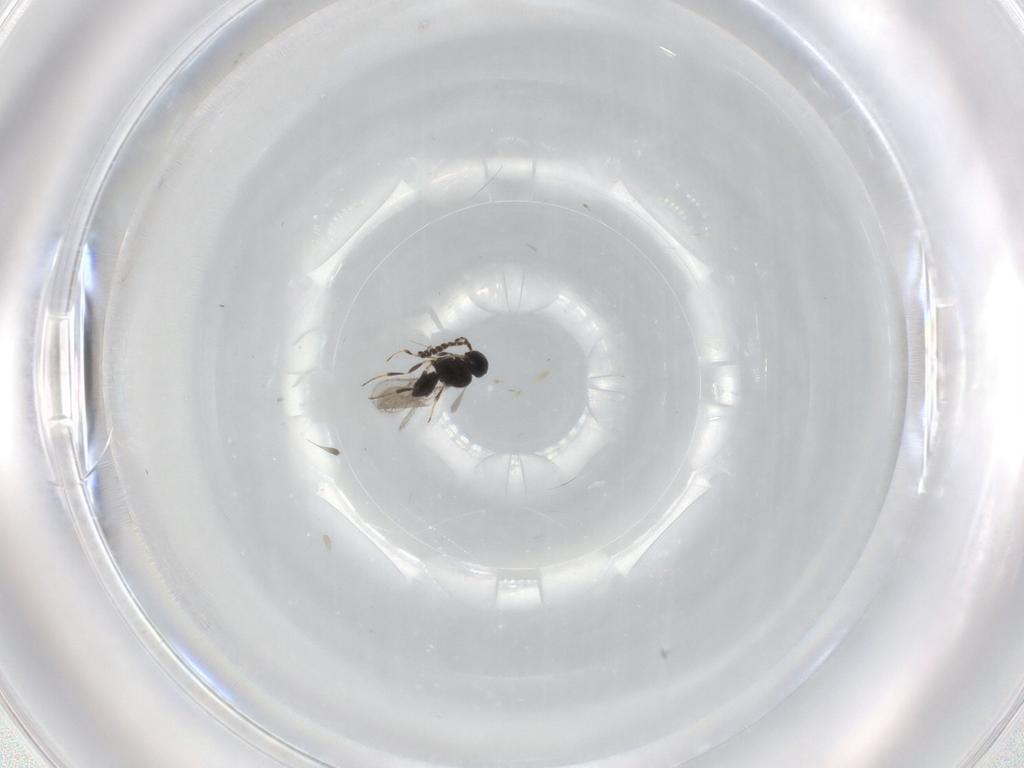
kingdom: Animalia
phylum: Arthropoda
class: Insecta
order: Hymenoptera
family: Scelionidae
